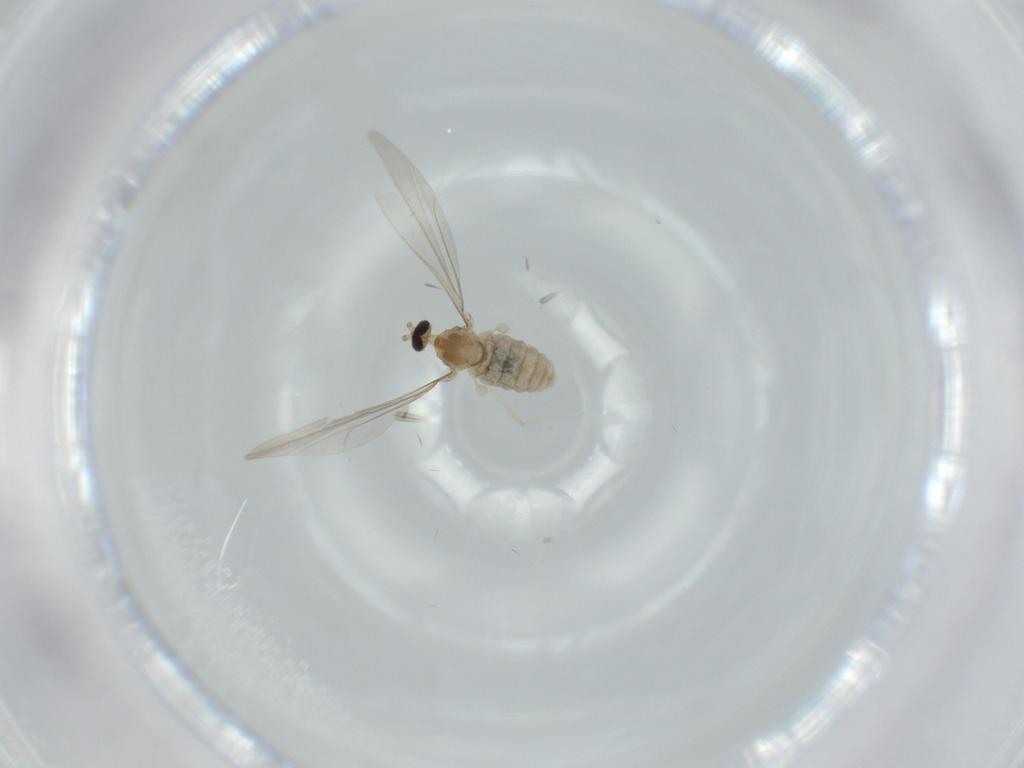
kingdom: Animalia
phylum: Arthropoda
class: Insecta
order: Diptera
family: Cecidomyiidae
